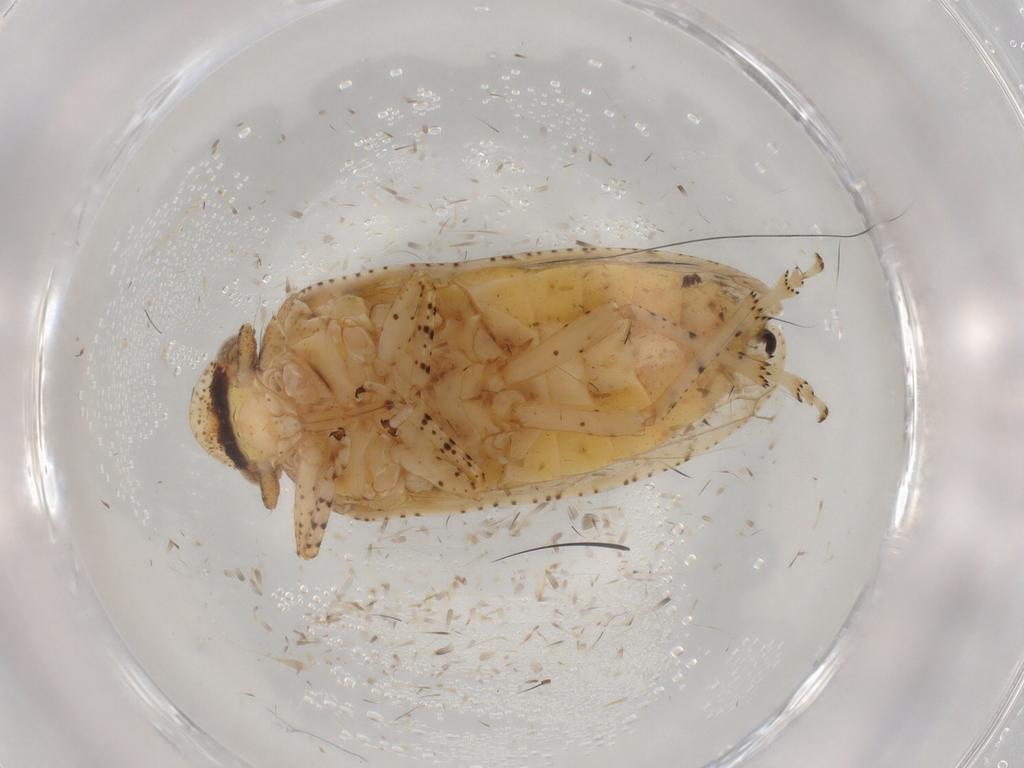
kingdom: Animalia
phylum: Arthropoda
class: Insecta
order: Hemiptera
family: Tettigometridae
